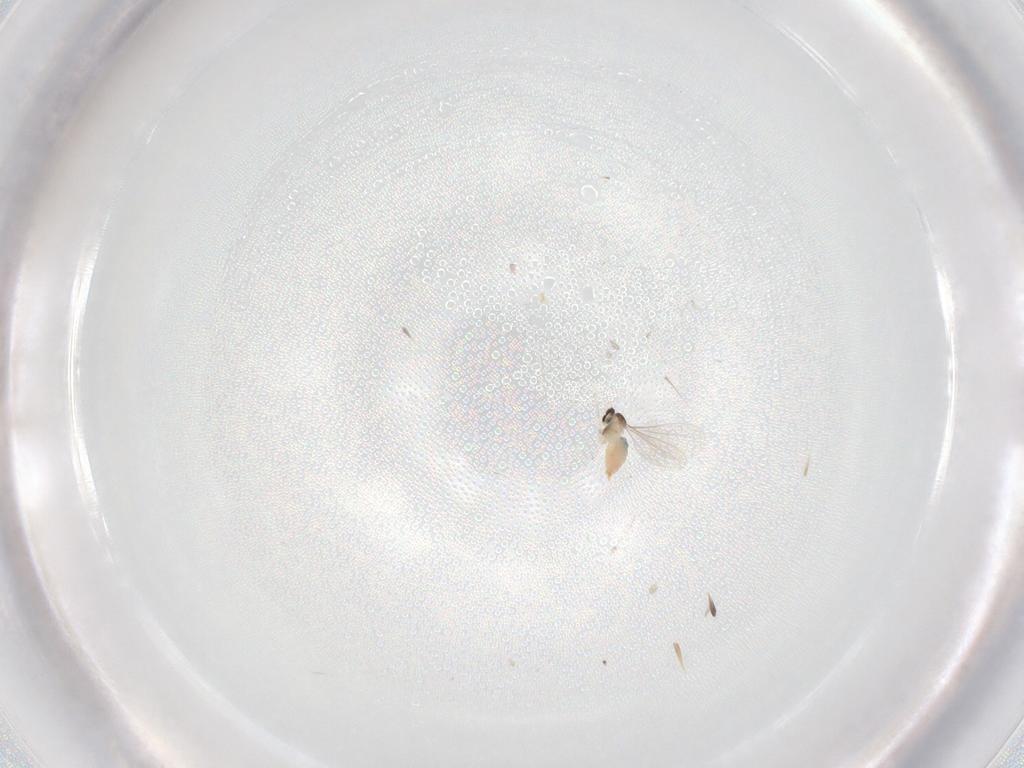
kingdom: Animalia
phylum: Arthropoda
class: Insecta
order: Diptera
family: Cecidomyiidae
